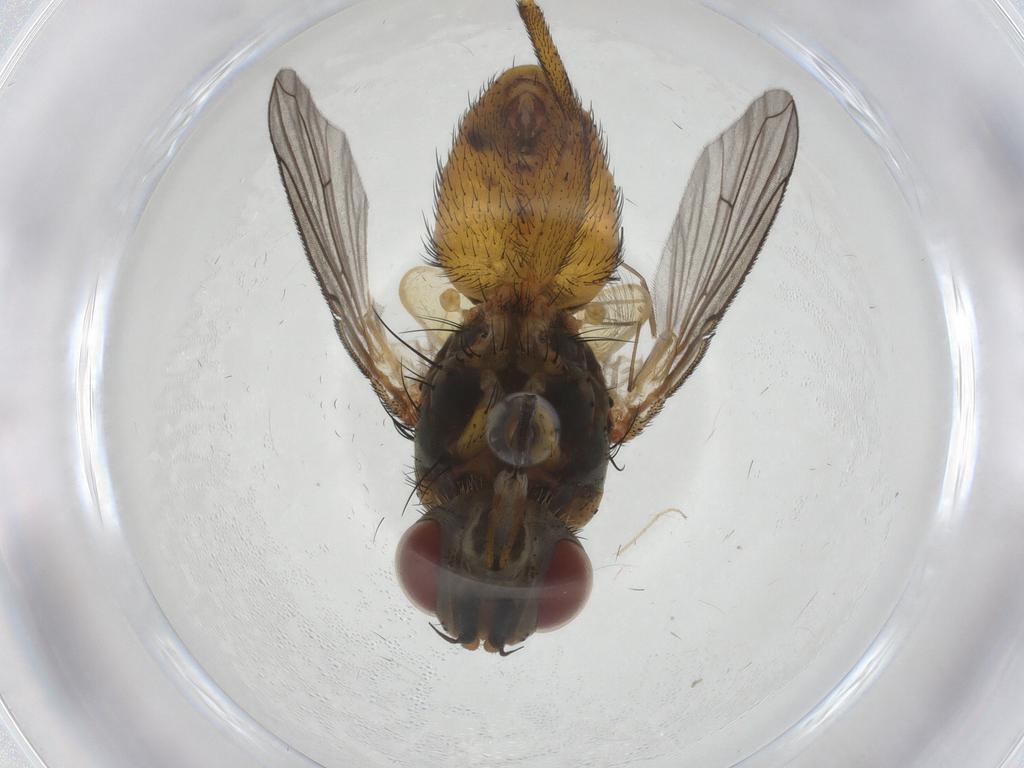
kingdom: Animalia
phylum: Arthropoda
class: Insecta
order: Diptera
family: Tachinidae
